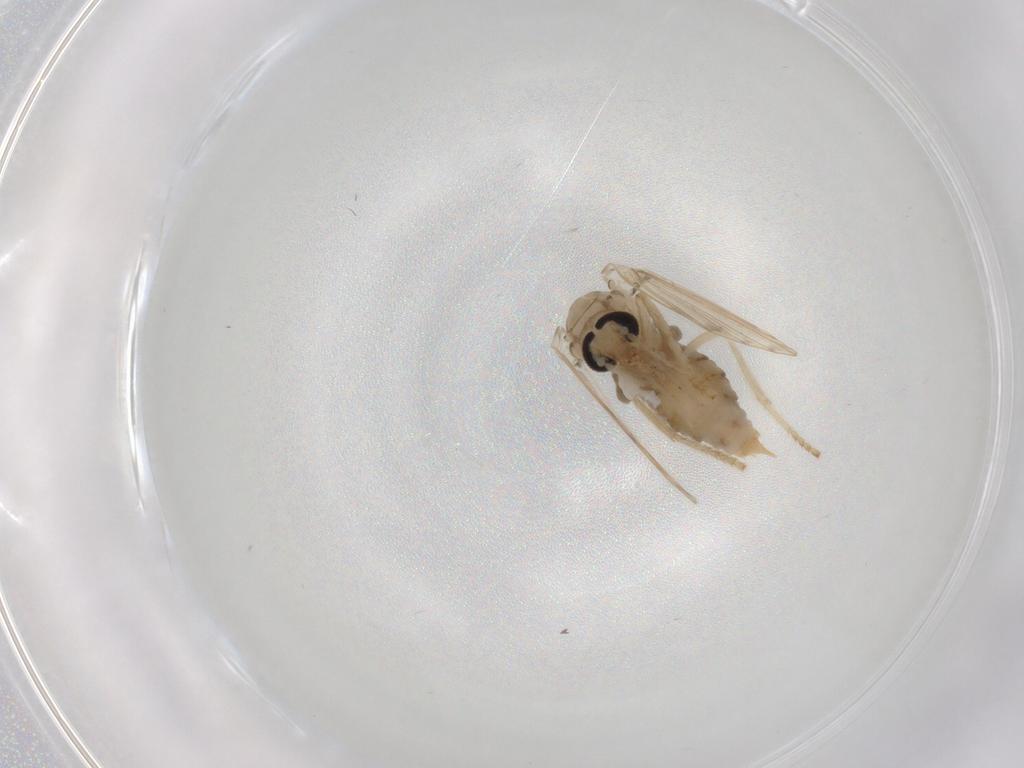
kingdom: Animalia
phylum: Arthropoda
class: Insecta
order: Diptera
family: Psychodidae
